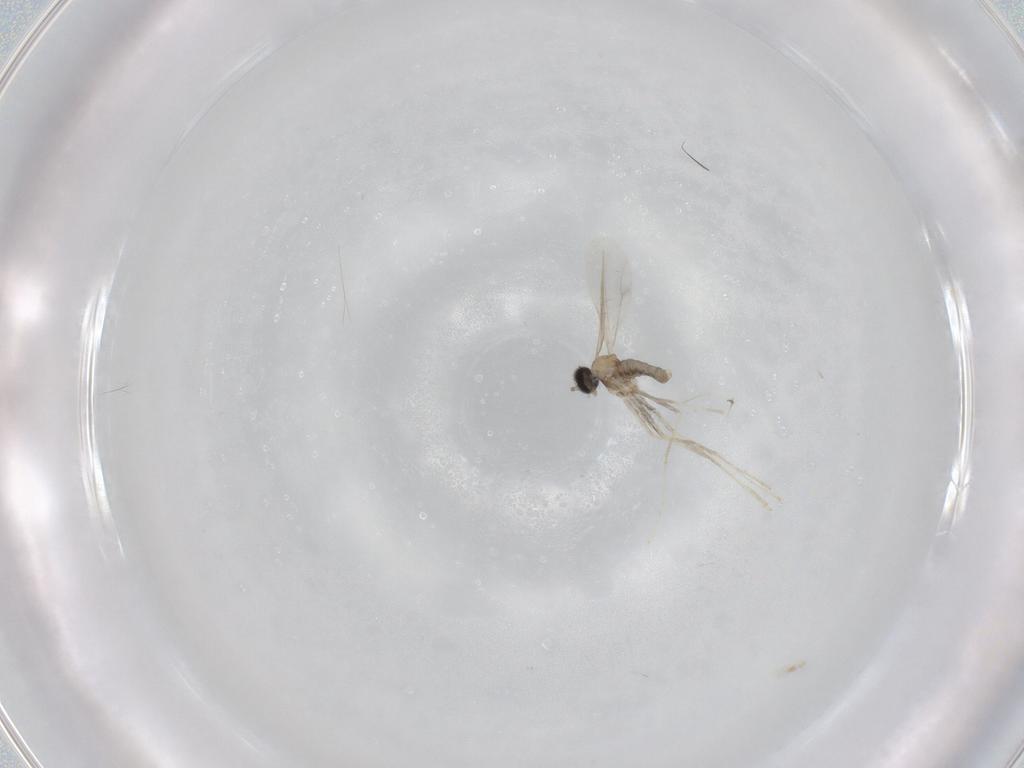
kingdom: Animalia
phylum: Arthropoda
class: Insecta
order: Diptera
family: Cecidomyiidae
